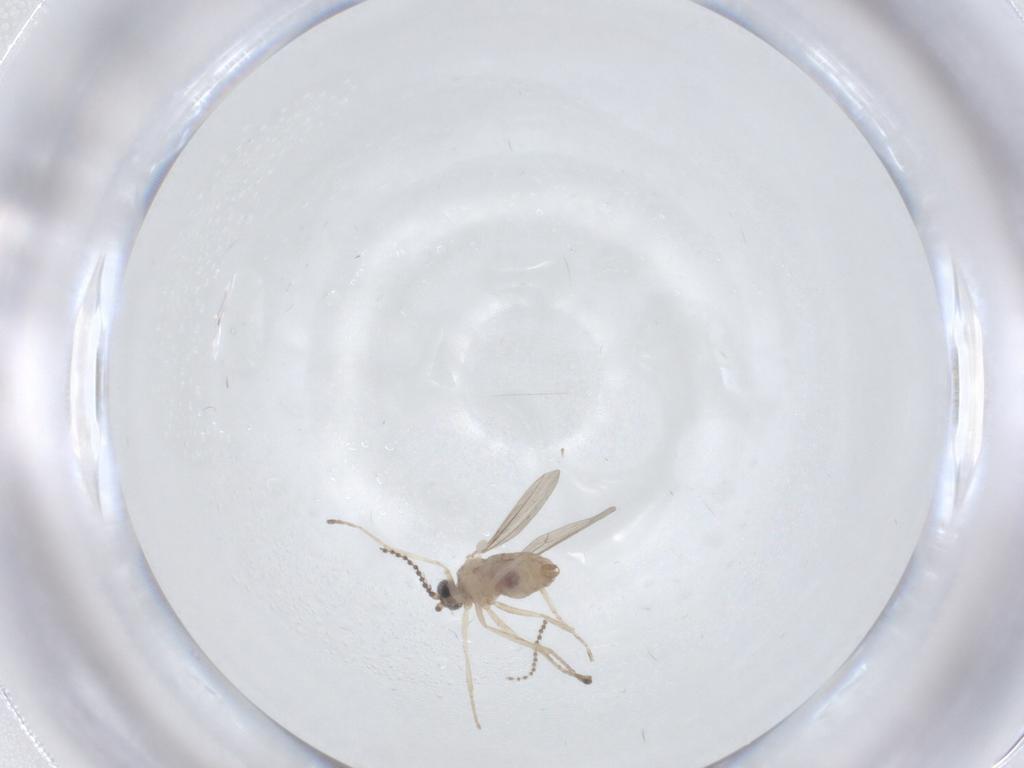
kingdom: Animalia
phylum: Arthropoda
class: Insecta
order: Diptera
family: Cecidomyiidae
